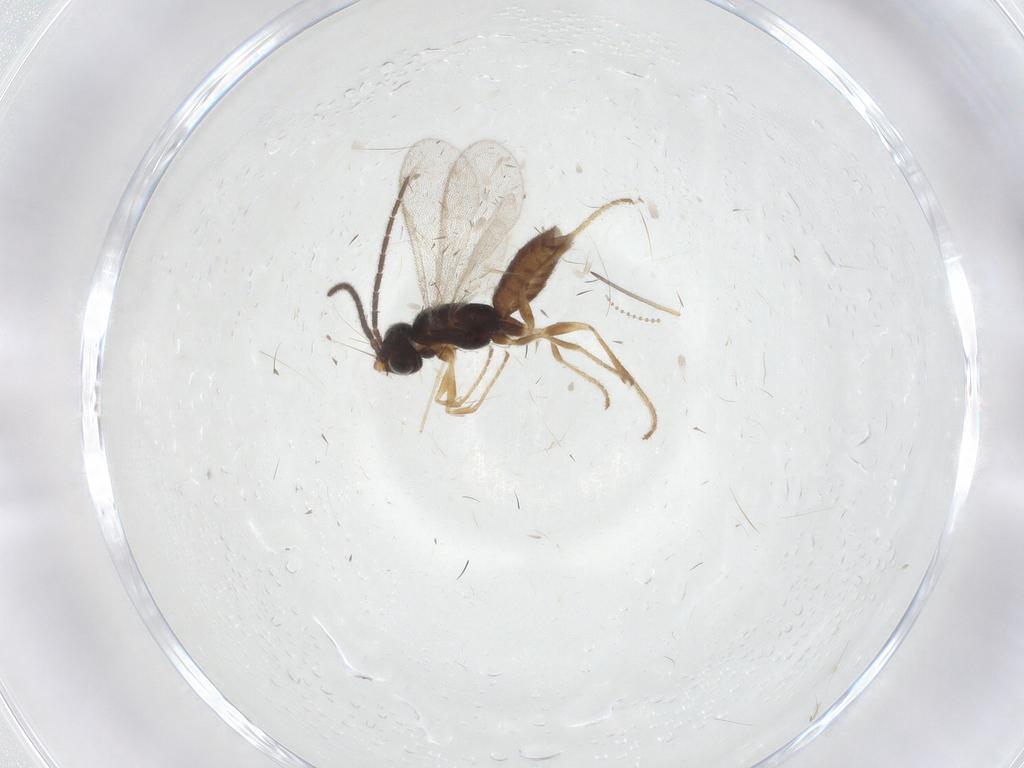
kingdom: Animalia
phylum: Arthropoda
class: Insecta
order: Hymenoptera
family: Dryinidae
